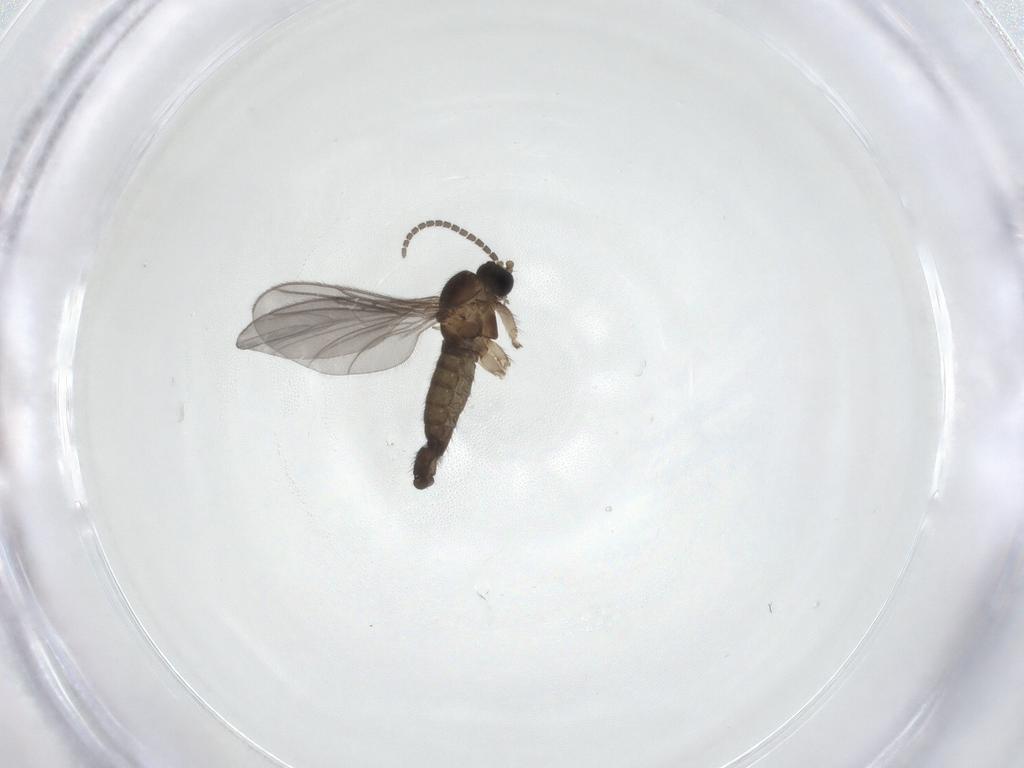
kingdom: Animalia
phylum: Arthropoda
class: Insecta
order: Diptera
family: Sciaridae
